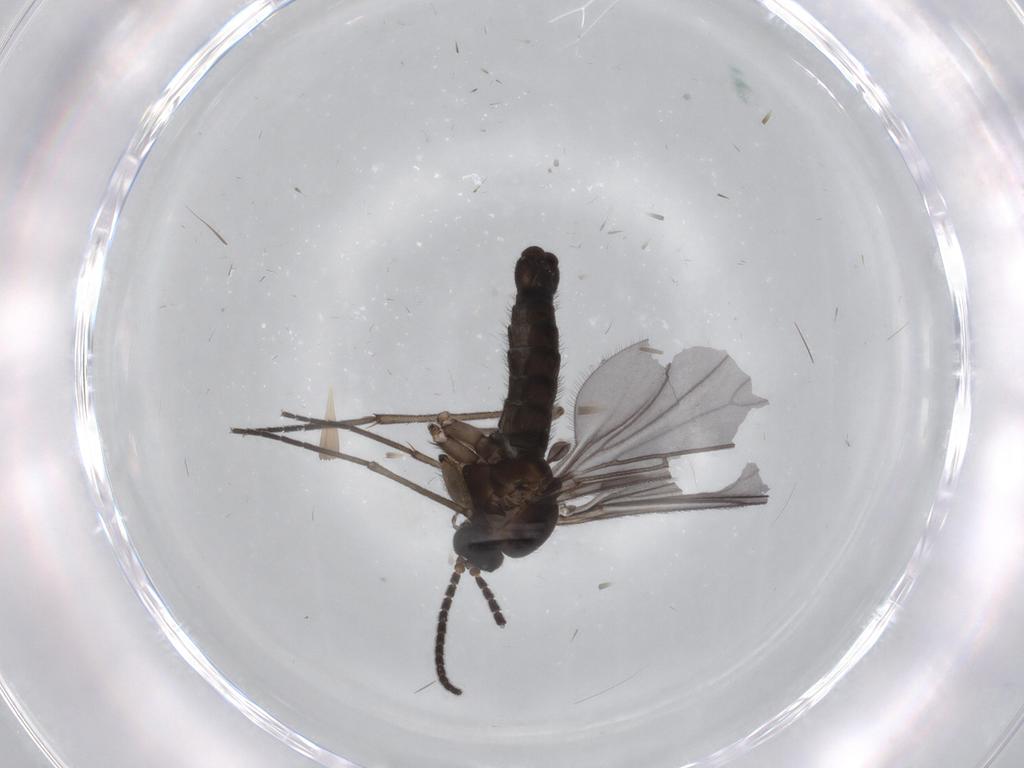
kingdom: Animalia
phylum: Arthropoda
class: Insecta
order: Diptera
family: Sciaridae
